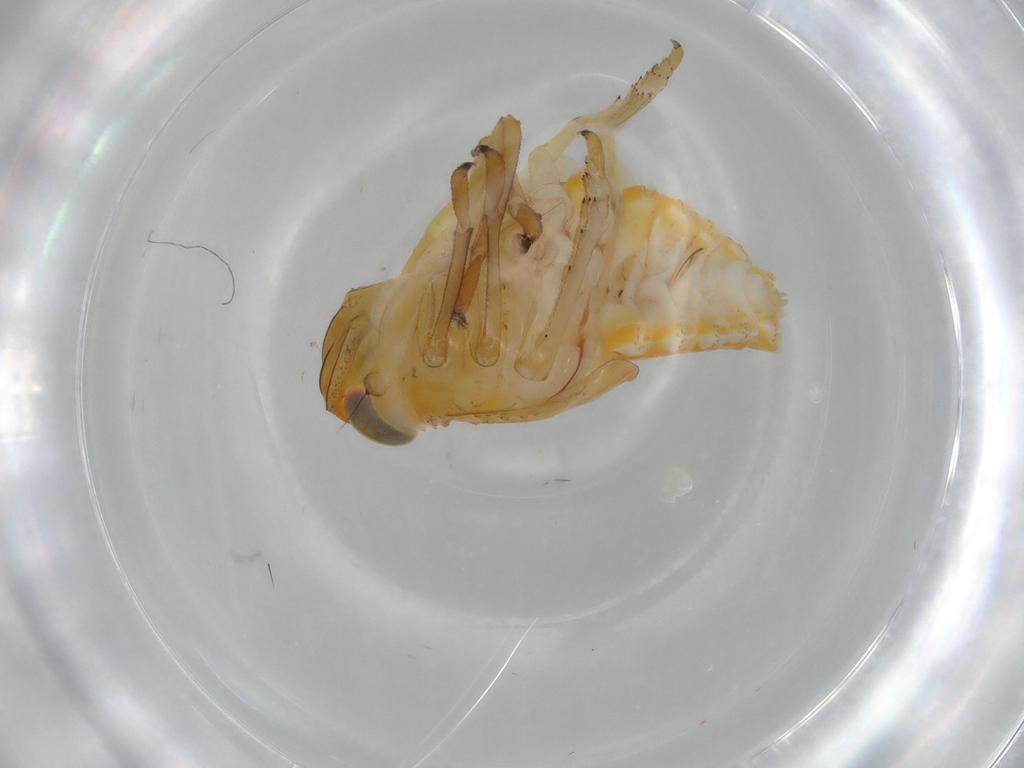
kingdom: Animalia
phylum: Arthropoda
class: Insecta
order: Hemiptera
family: Issidae
